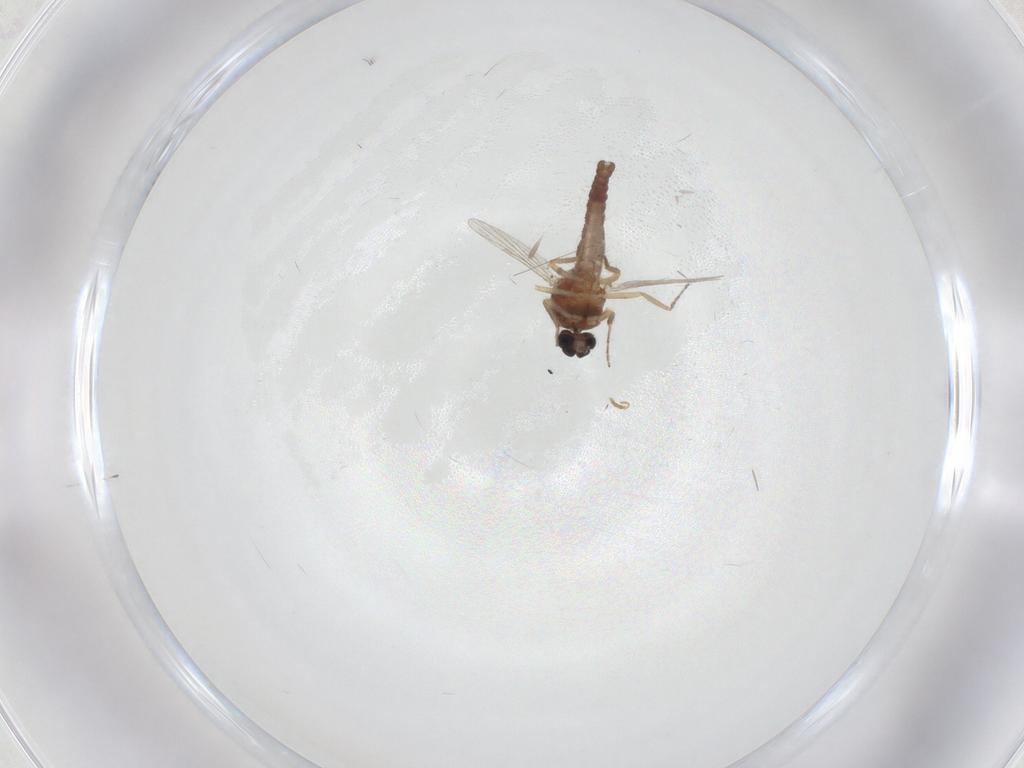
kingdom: Animalia
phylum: Arthropoda
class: Insecta
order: Diptera
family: Ceratopogonidae
